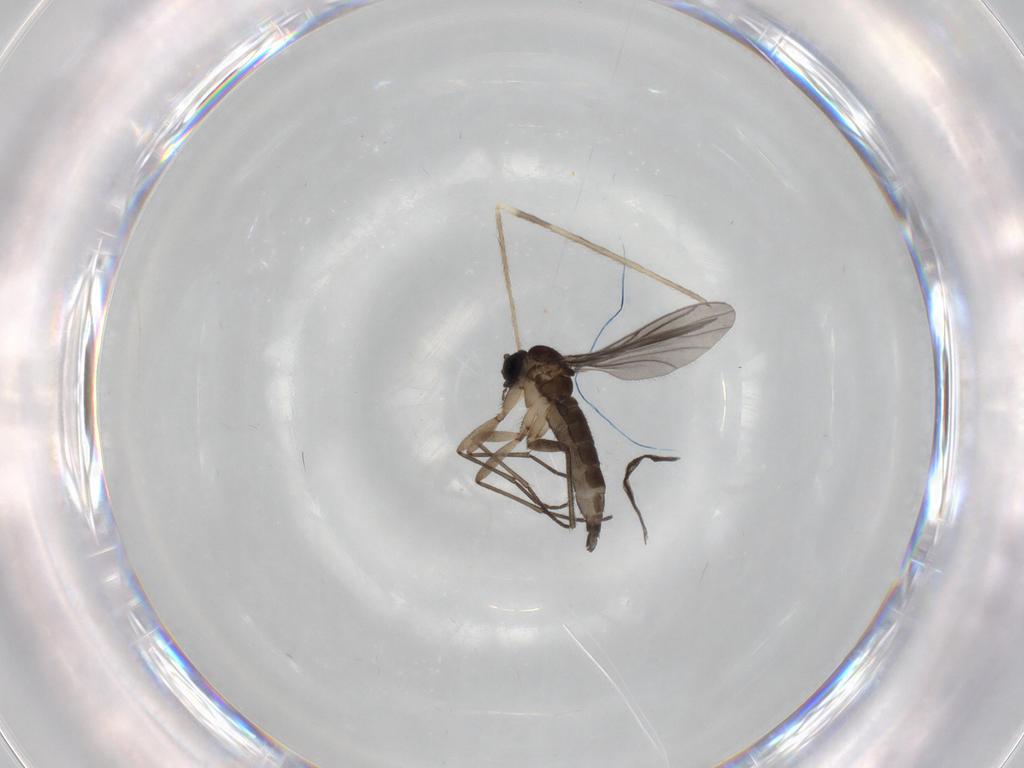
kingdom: Animalia
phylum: Arthropoda
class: Insecta
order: Diptera
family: Sciaridae
